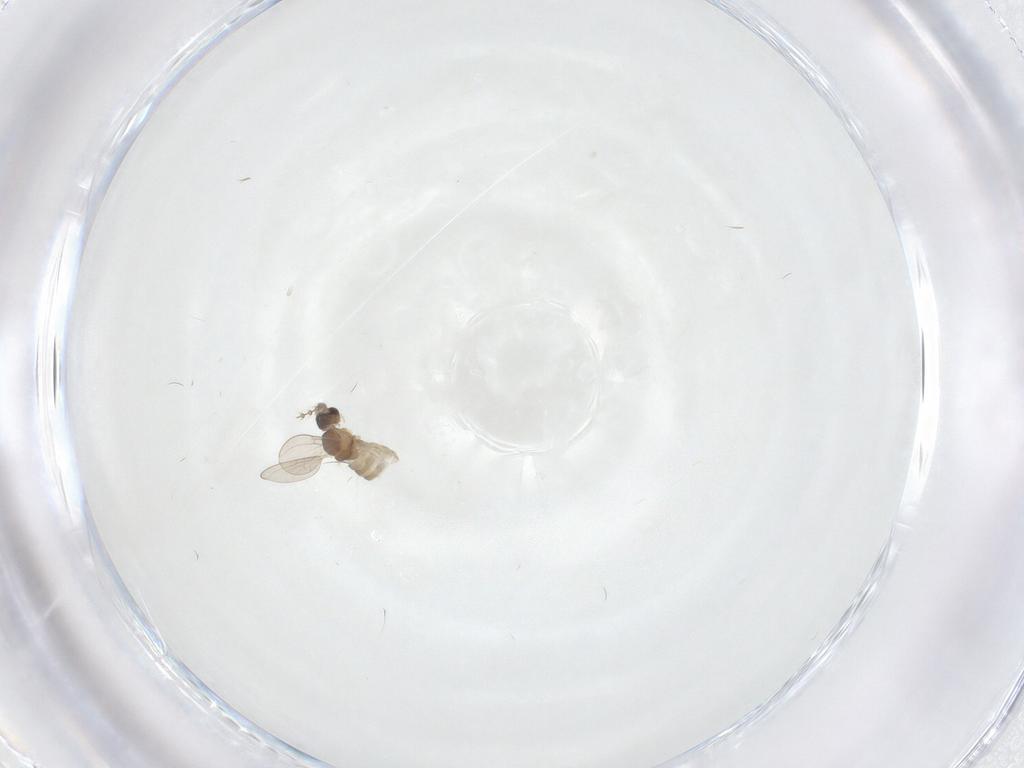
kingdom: Animalia
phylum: Arthropoda
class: Insecta
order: Diptera
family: Cecidomyiidae
